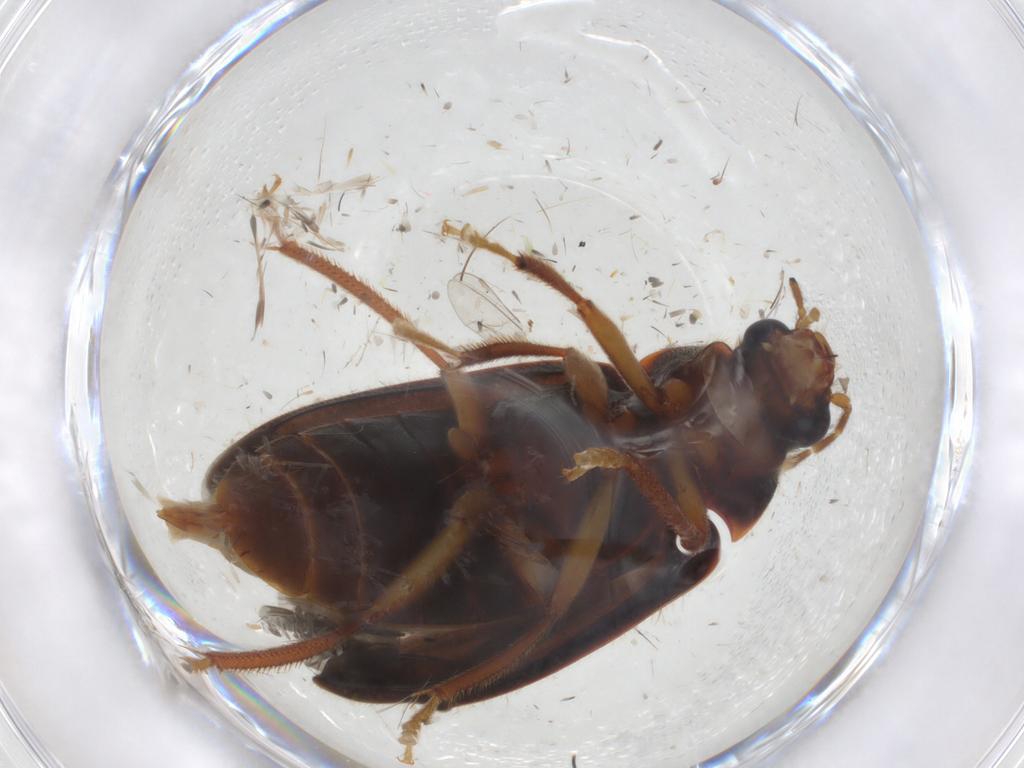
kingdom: Animalia
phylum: Arthropoda
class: Insecta
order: Coleoptera
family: Ptilodactylidae
